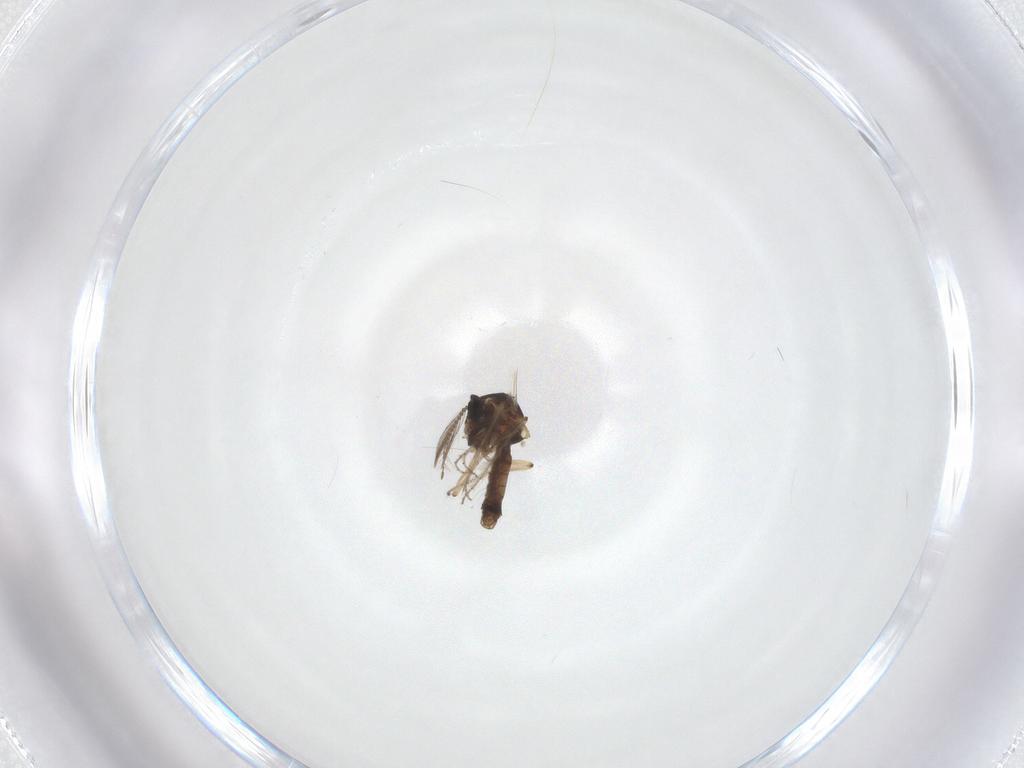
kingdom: Animalia
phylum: Arthropoda
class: Insecta
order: Diptera
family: Ceratopogonidae
